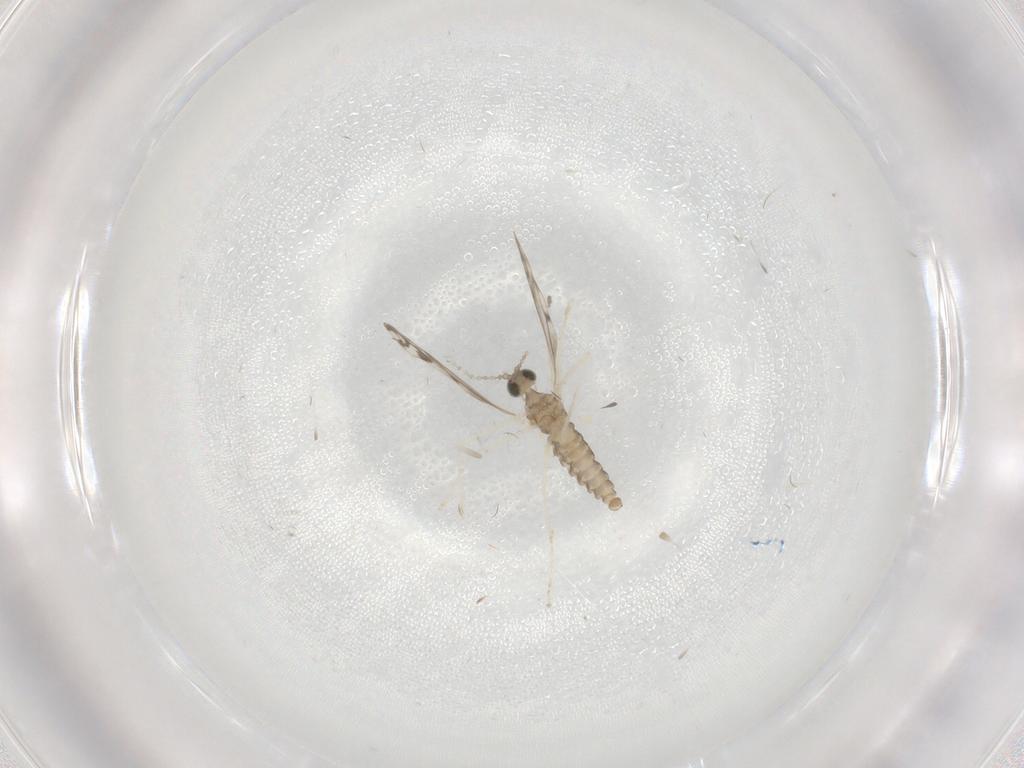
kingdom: Animalia
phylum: Arthropoda
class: Insecta
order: Diptera
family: Cecidomyiidae
